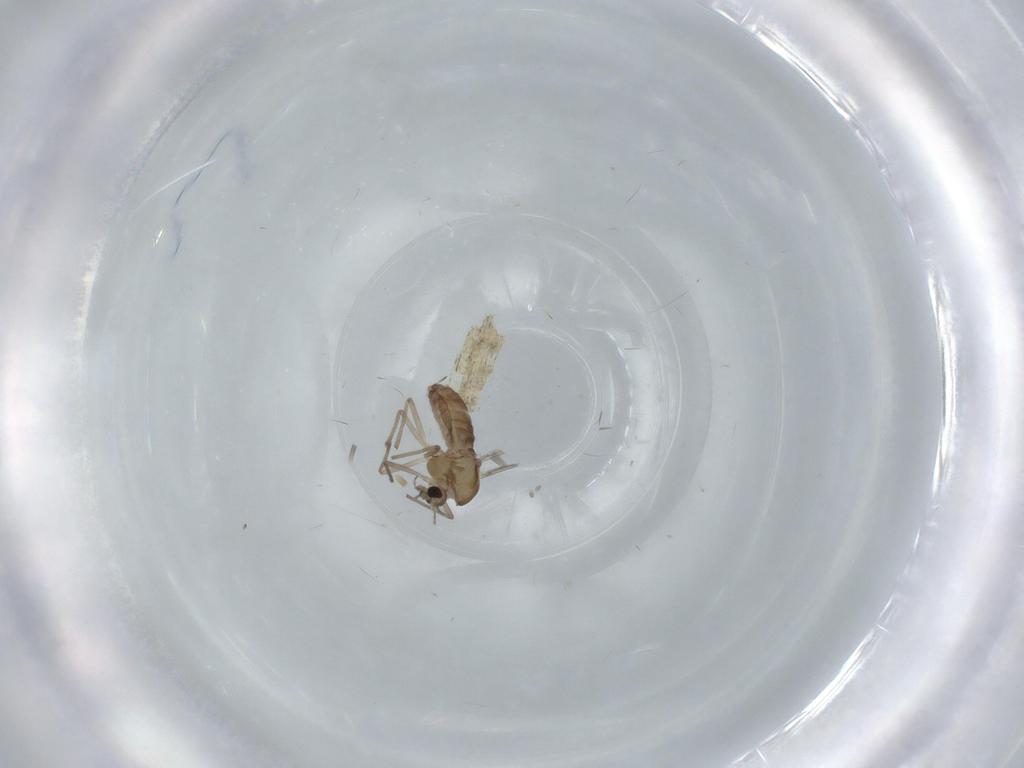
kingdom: Animalia
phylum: Arthropoda
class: Insecta
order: Diptera
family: Chironomidae
